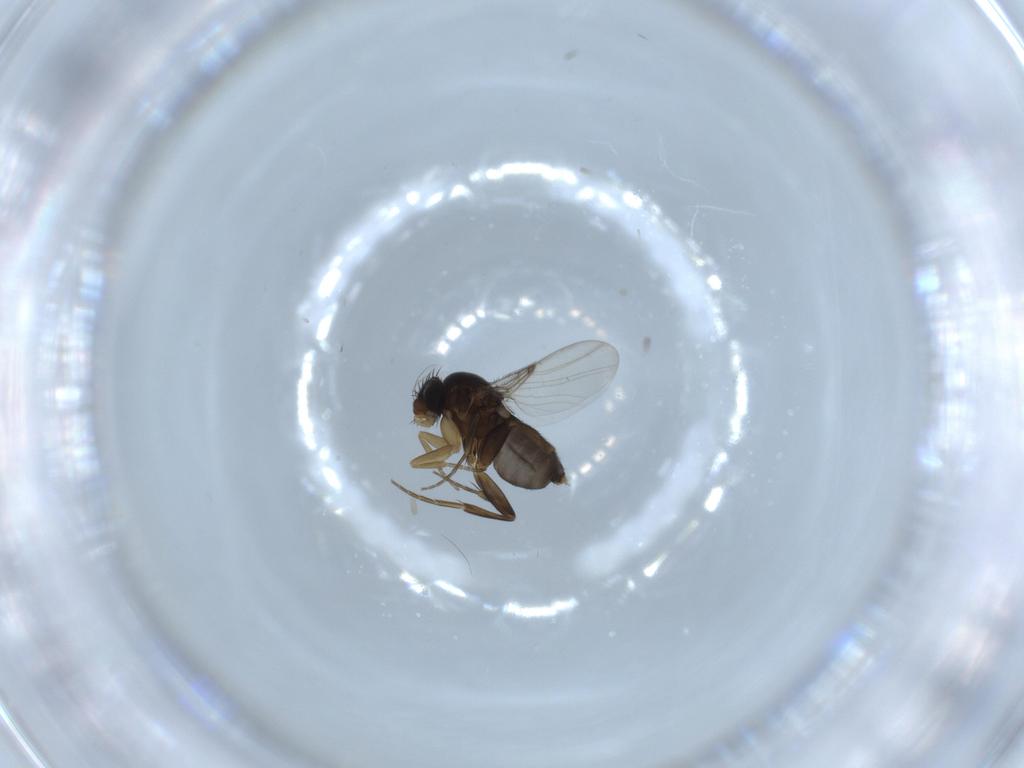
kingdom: Animalia
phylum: Arthropoda
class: Insecta
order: Diptera
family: Phoridae
